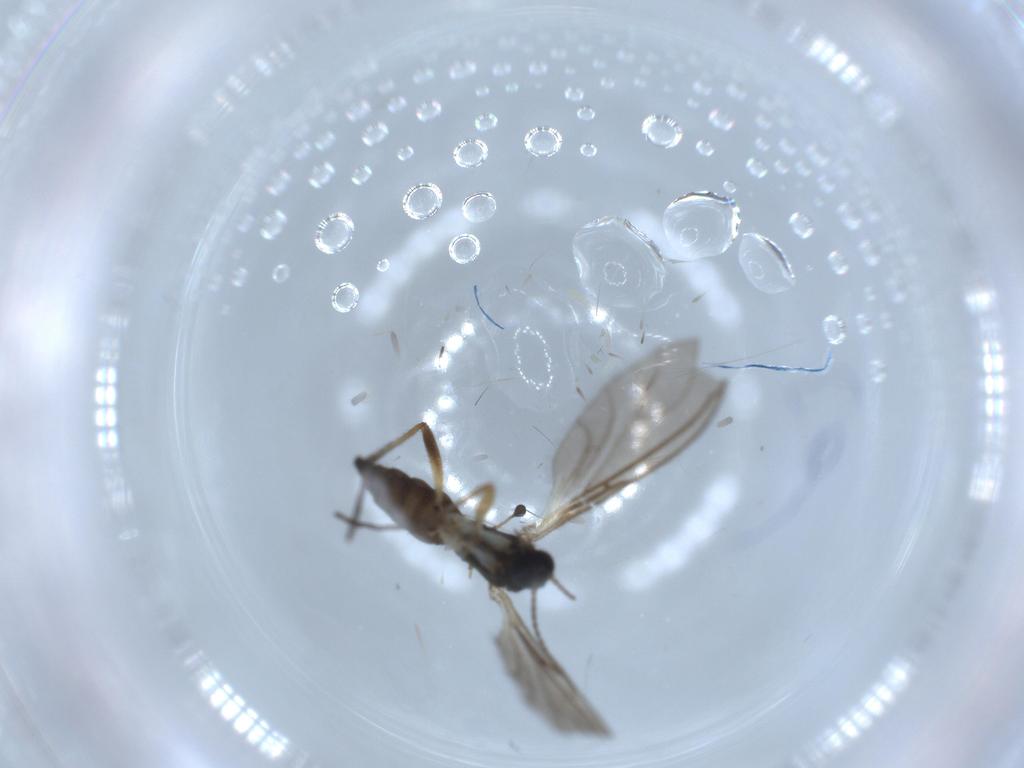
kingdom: Animalia
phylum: Arthropoda
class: Insecta
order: Diptera
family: Sciaridae
